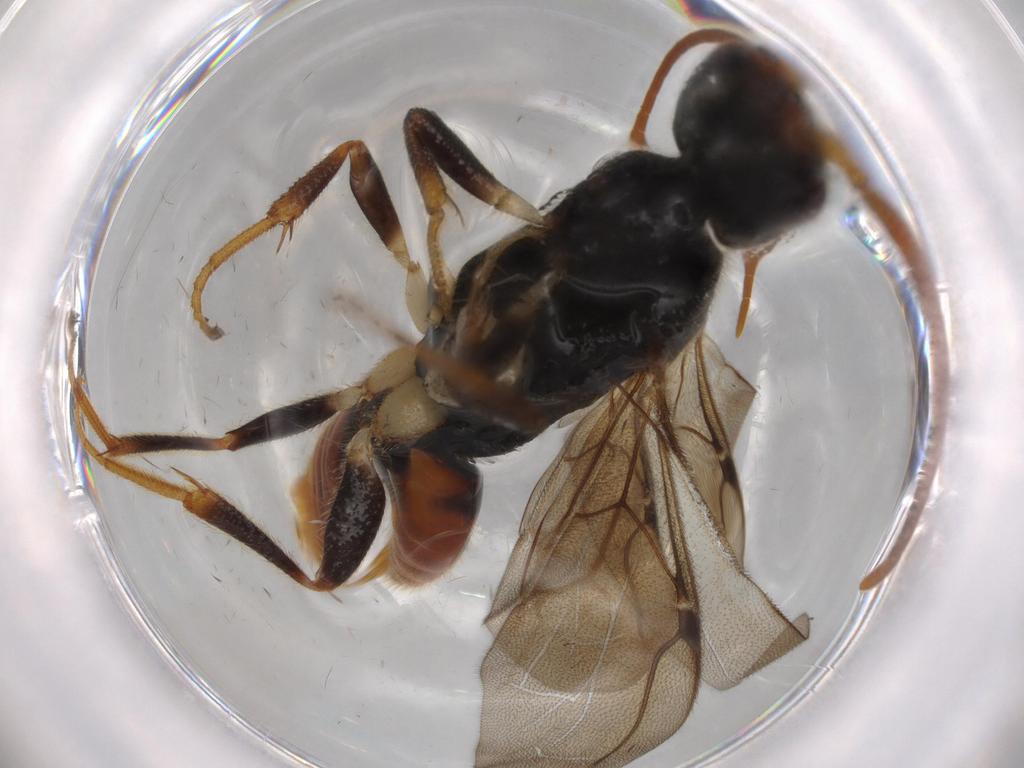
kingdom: Animalia
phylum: Arthropoda
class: Insecta
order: Hymenoptera
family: Bethylidae
